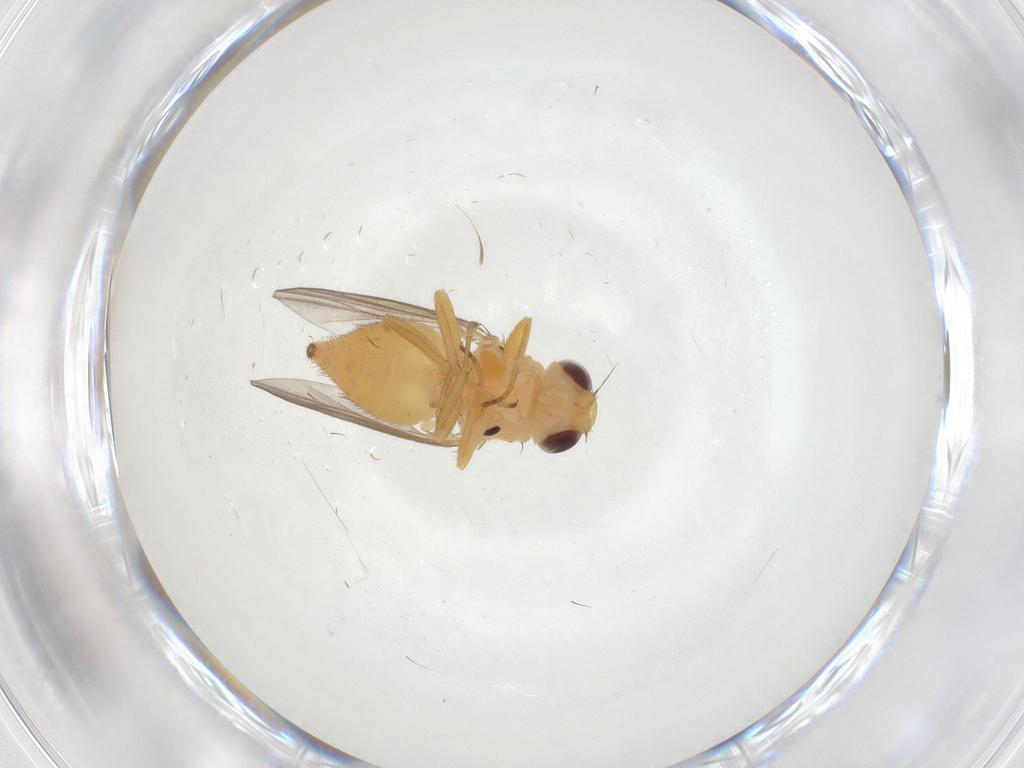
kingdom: Animalia
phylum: Arthropoda
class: Insecta
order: Diptera
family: Chloropidae
